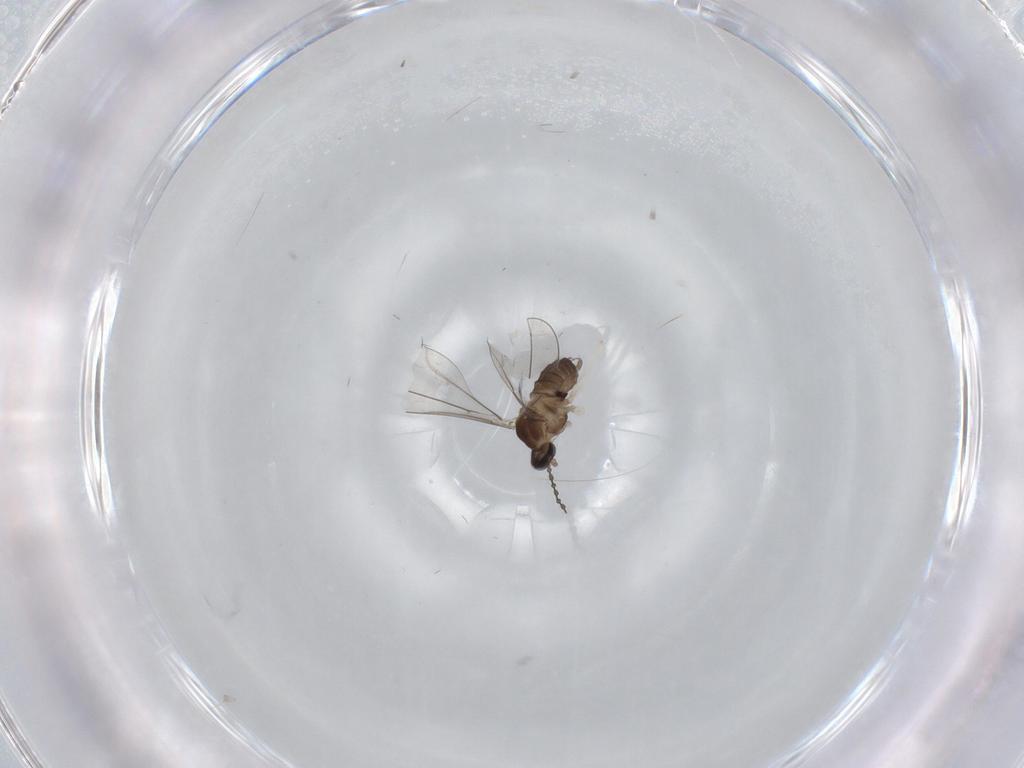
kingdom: Animalia
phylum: Arthropoda
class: Insecta
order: Diptera
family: Cecidomyiidae
